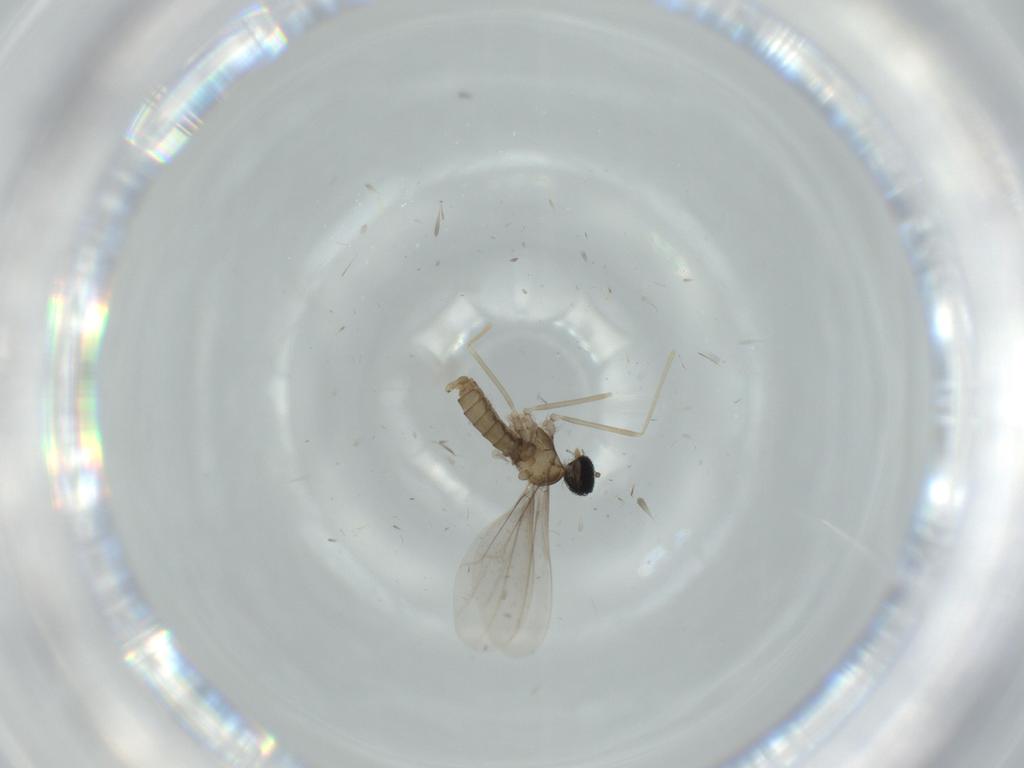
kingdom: Animalia
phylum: Arthropoda
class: Insecta
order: Diptera
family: Cecidomyiidae
